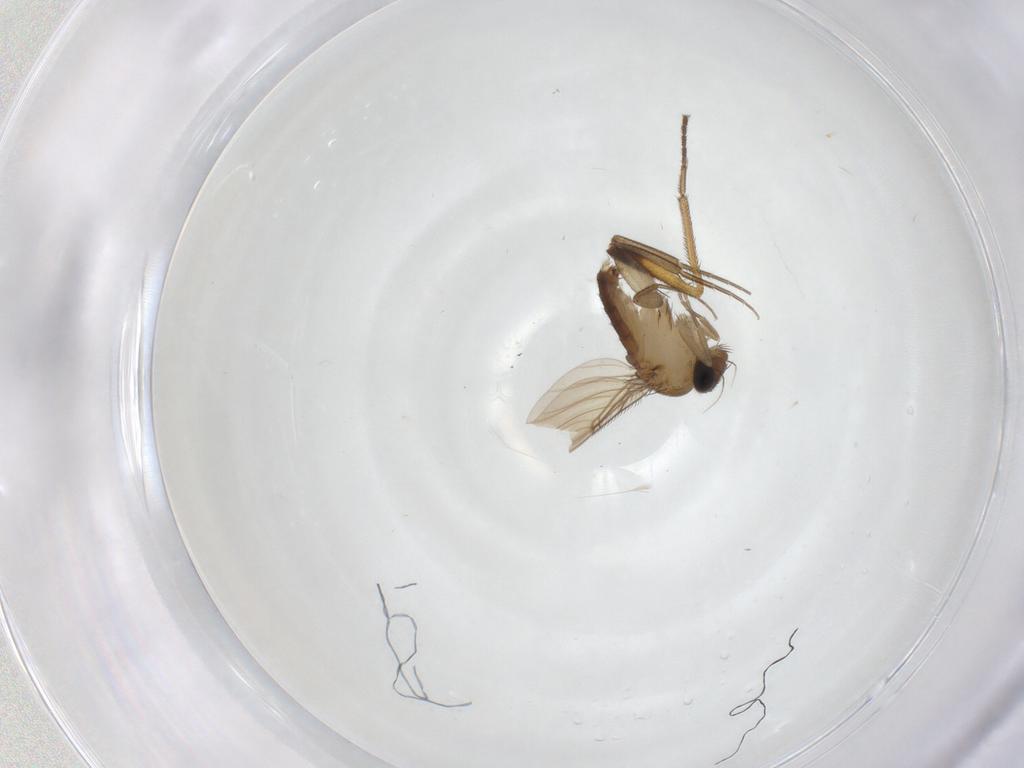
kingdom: Animalia
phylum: Arthropoda
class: Insecta
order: Diptera
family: Phoridae
